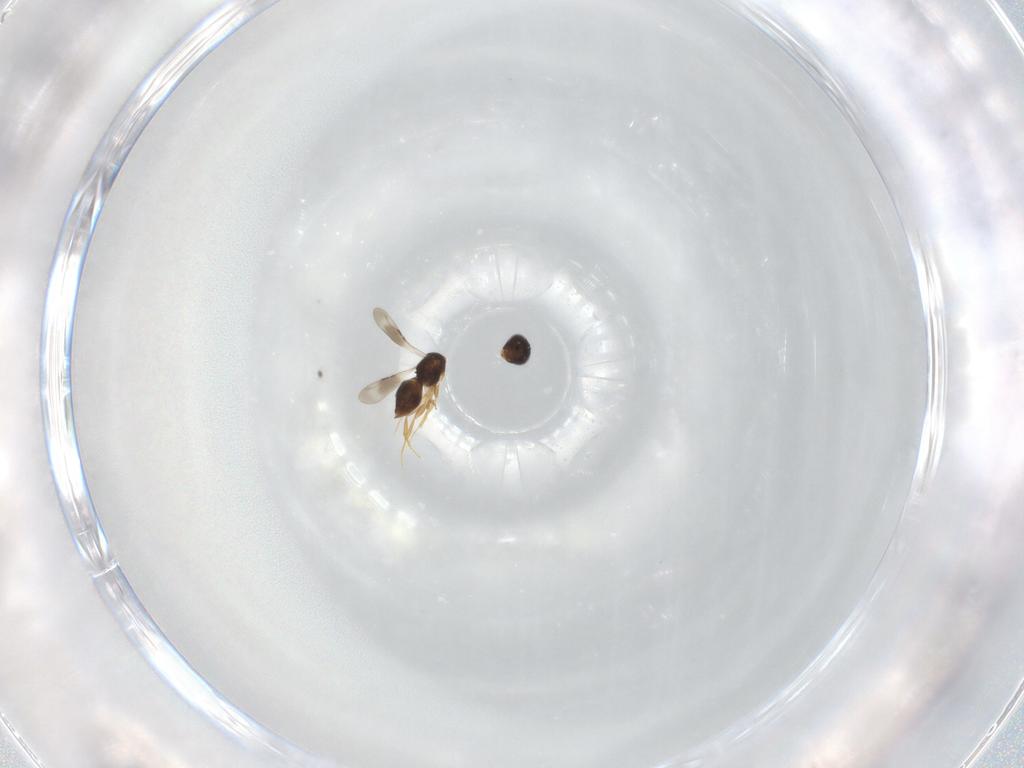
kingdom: Animalia
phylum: Arthropoda
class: Insecta
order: Hymenoptera
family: Ceraphronidae
